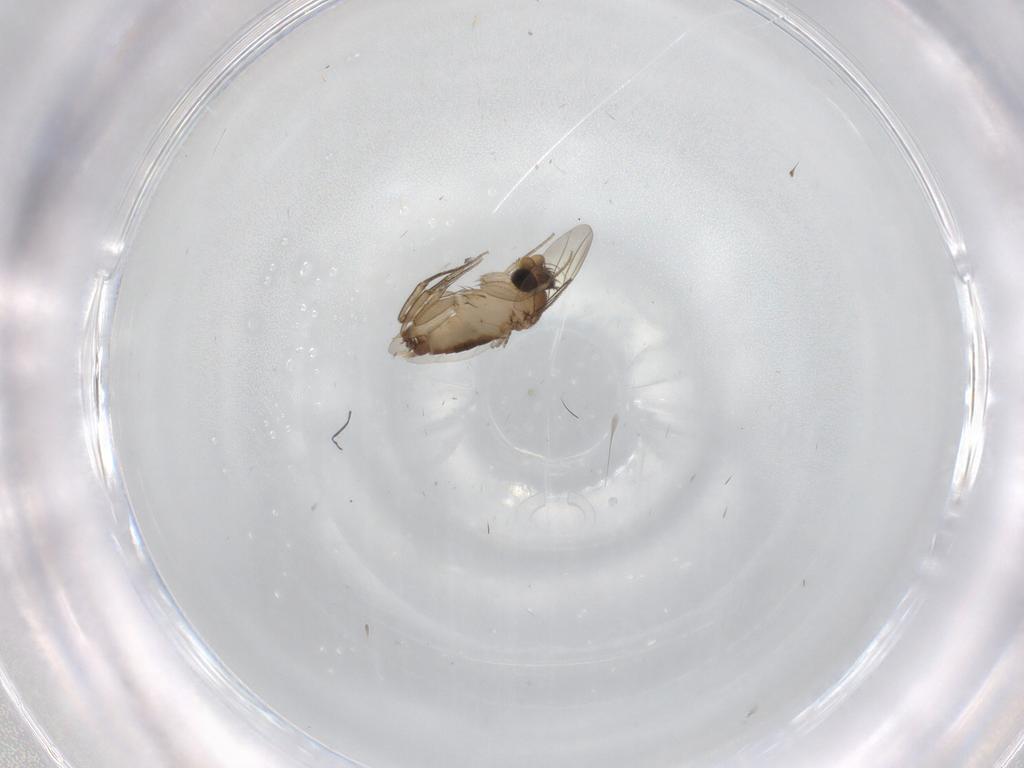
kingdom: Animalia
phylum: Arthropoda
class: Insecta
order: Diptera
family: Phoridae
